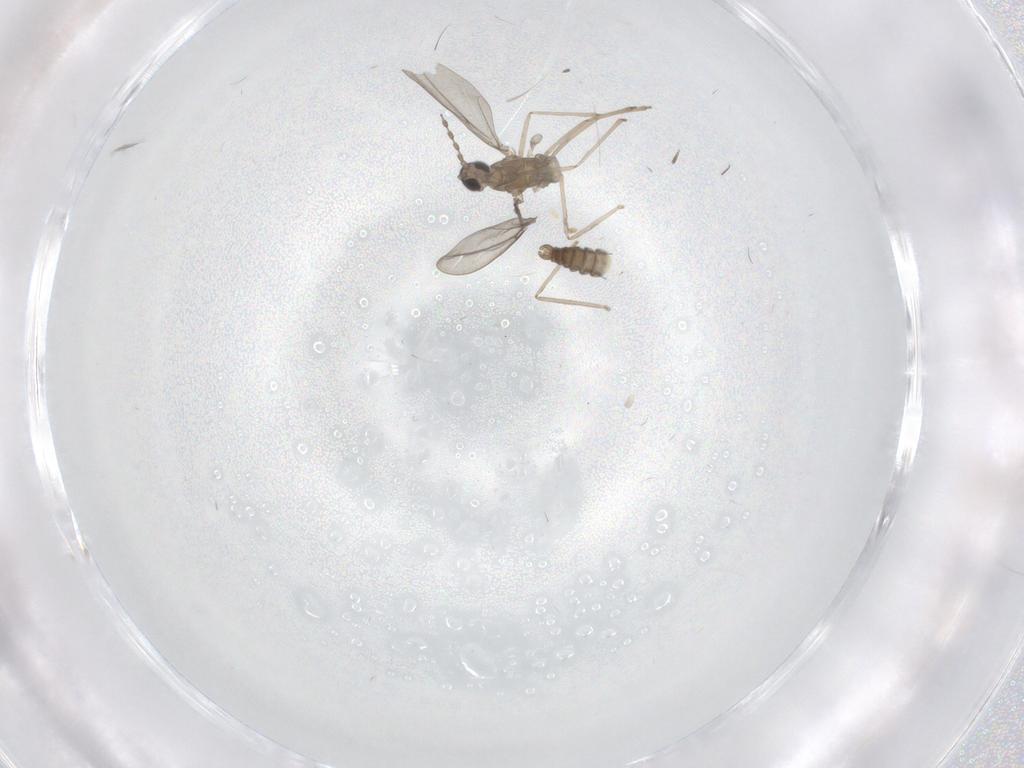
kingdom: Animalia
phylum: Arthropoda
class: Insecta
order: Diptera
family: Cecidomyiidae
